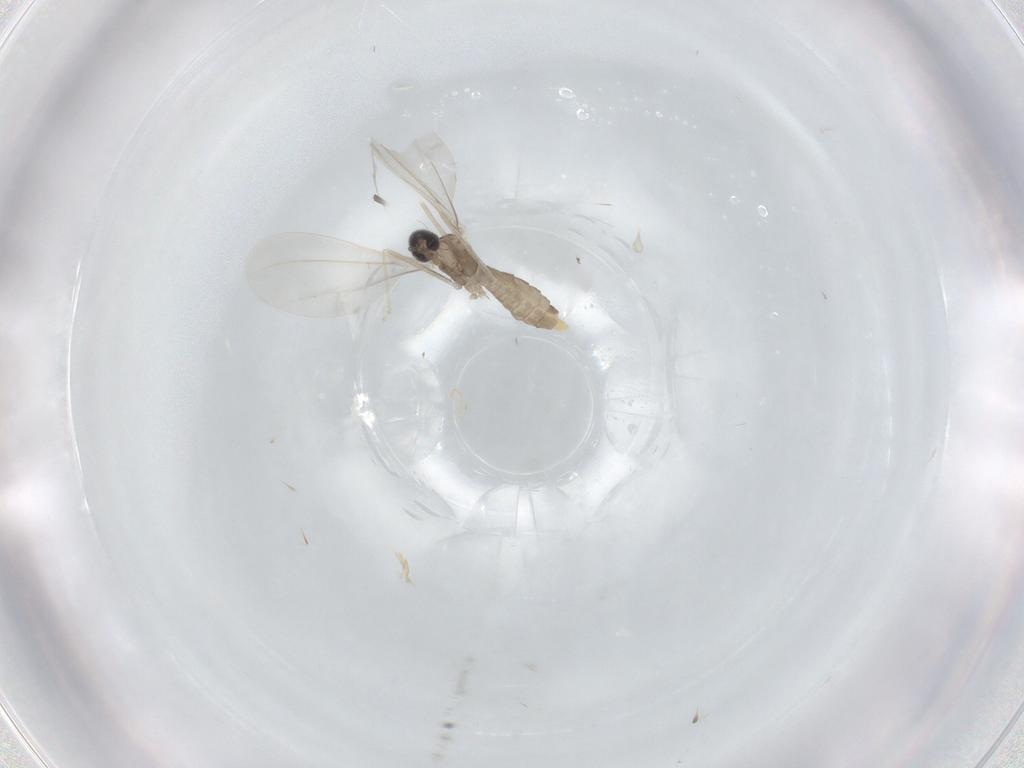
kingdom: Animalia
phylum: Arthropoda
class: Insecta
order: Diptera
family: Cecidomyiidae
